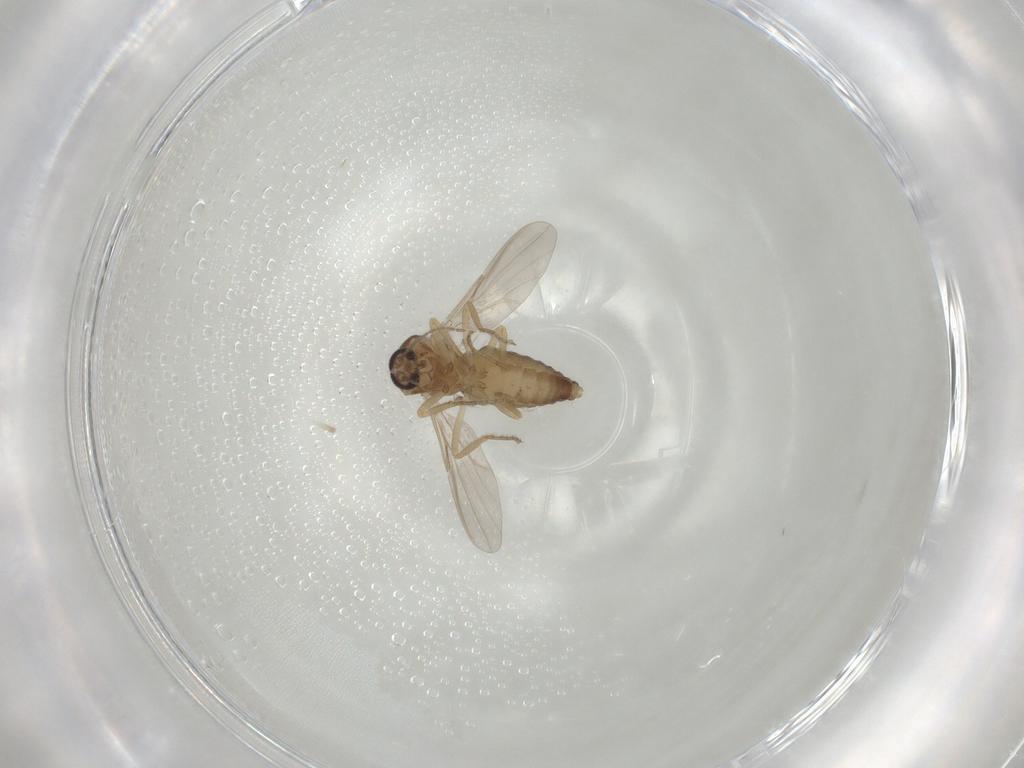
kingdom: Animalia
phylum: Arthropoda
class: Insecta
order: Diptera
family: Ceratopogonidae
